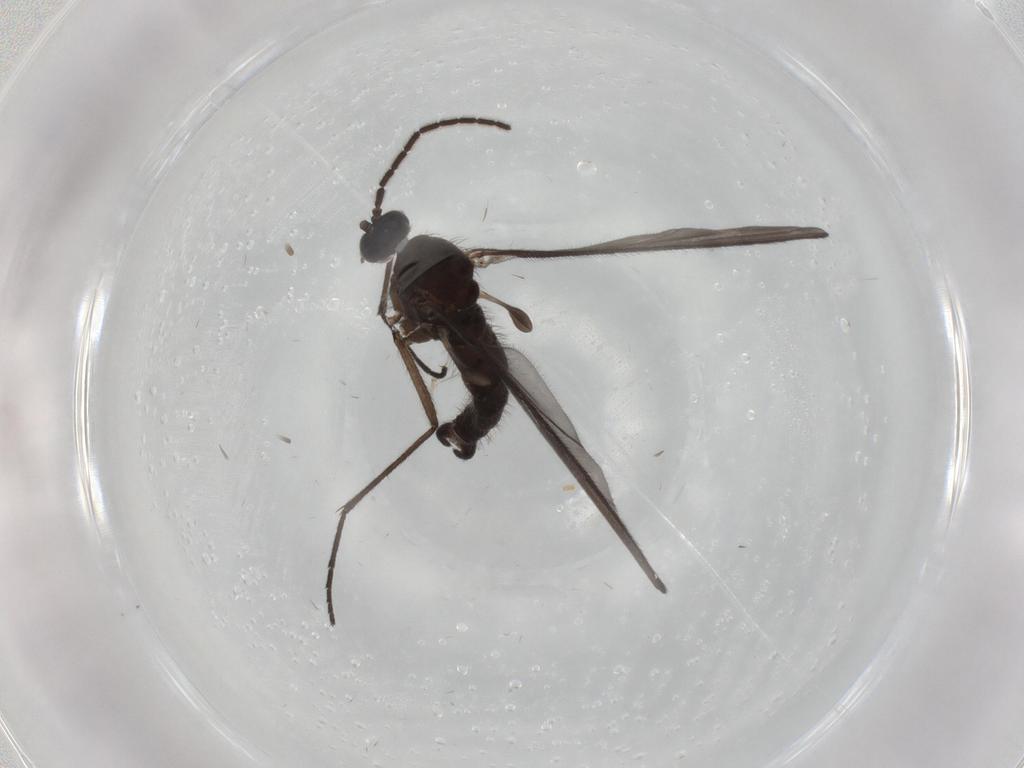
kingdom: Animalia
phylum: Arthropoda
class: Insecta
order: Diptera
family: Sciaridae
